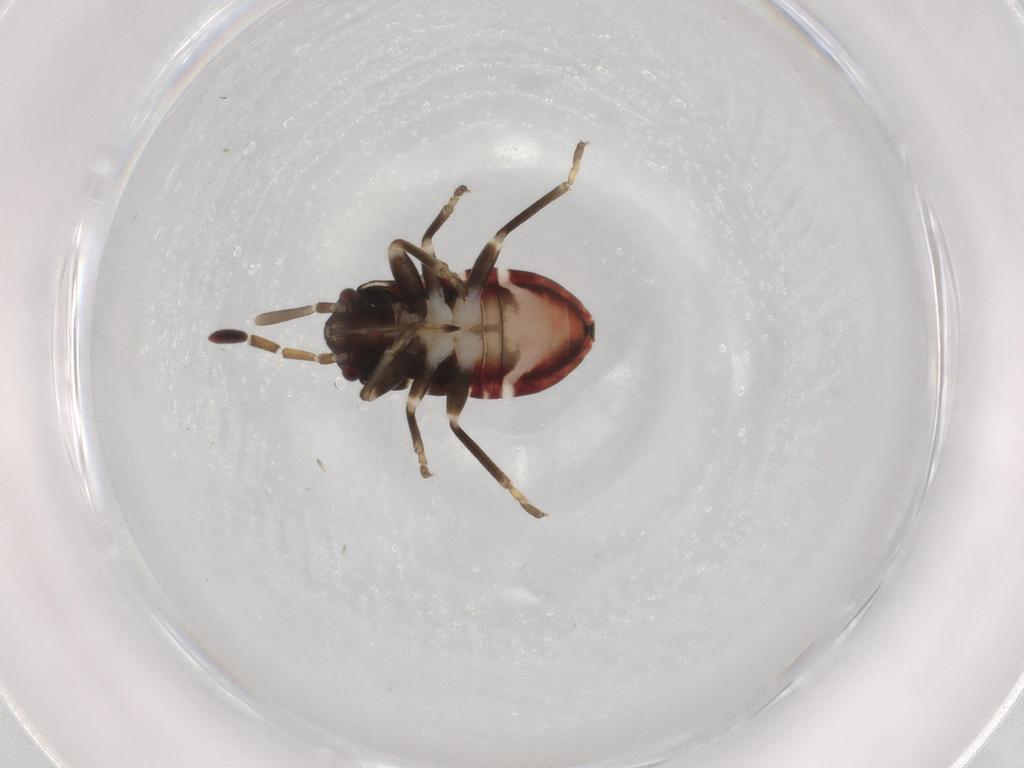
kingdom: Animalia
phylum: Arthropoda
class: Insecta
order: Hemiptera
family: Rhyparochromidae
